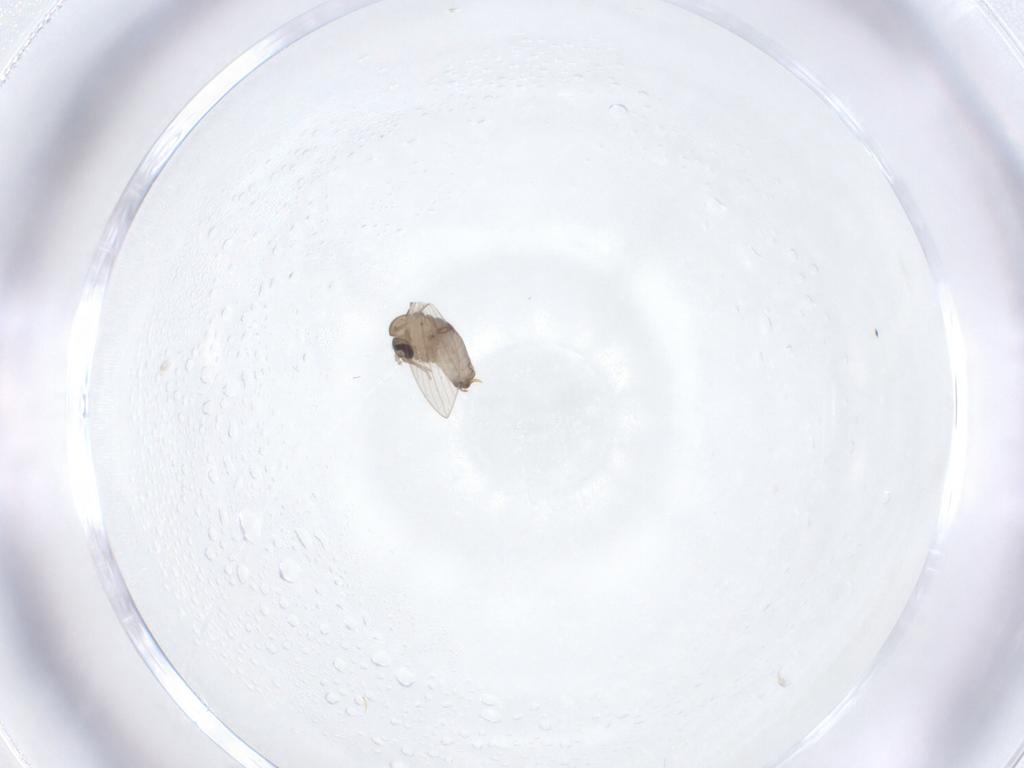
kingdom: Animalia
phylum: Arthropoda
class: Insecta
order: Diptera
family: Psychodidae
